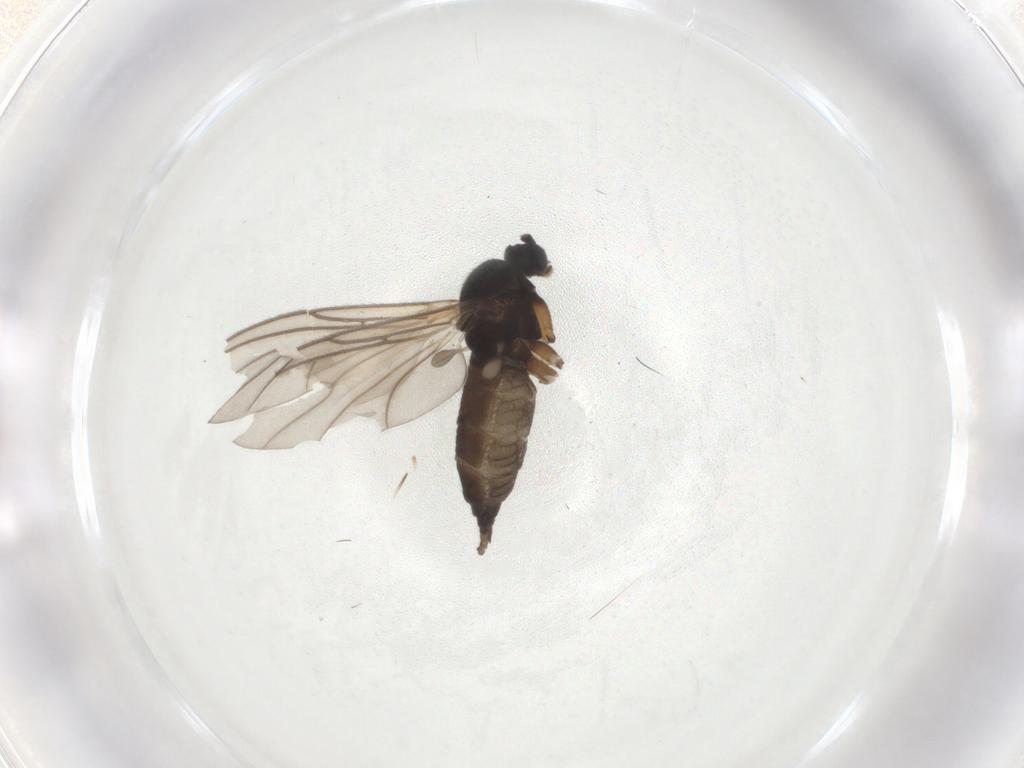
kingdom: Animalia
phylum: Arthropoda
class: Insecta
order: Diptera
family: Sciaridae
